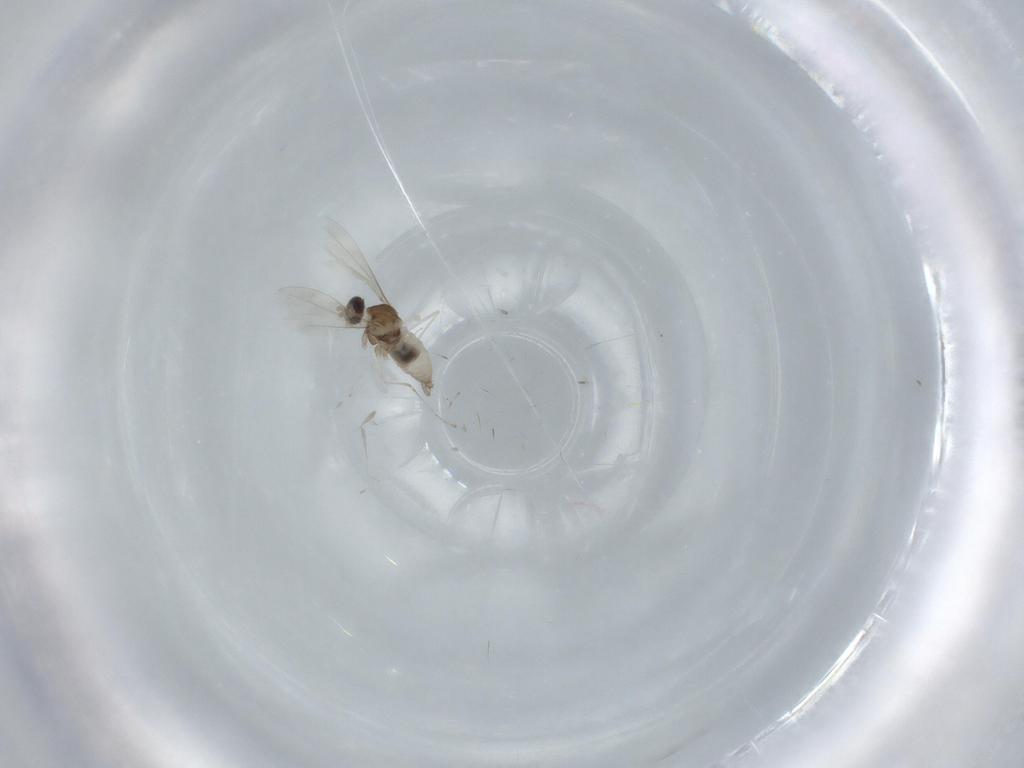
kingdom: Animalia
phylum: Arthropoda
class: Insecta
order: Diptera
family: Cecidomyiidae
